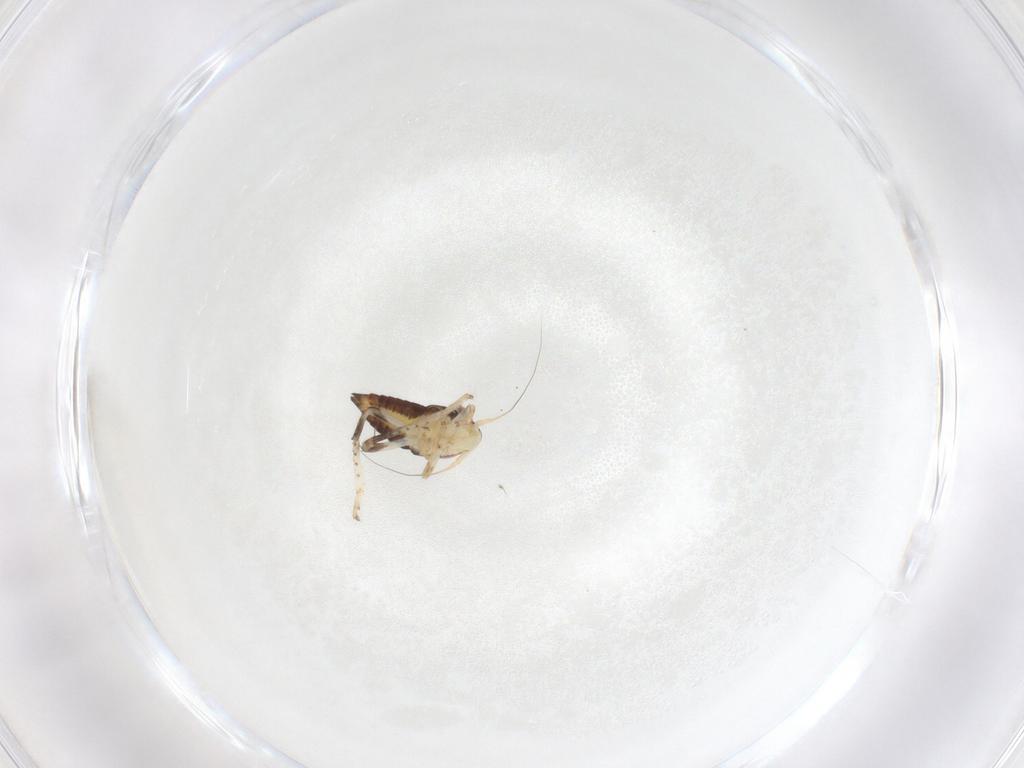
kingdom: Animalia
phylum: Arthropoda
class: Insecta
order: Hemiptera
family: Cicadellidae
